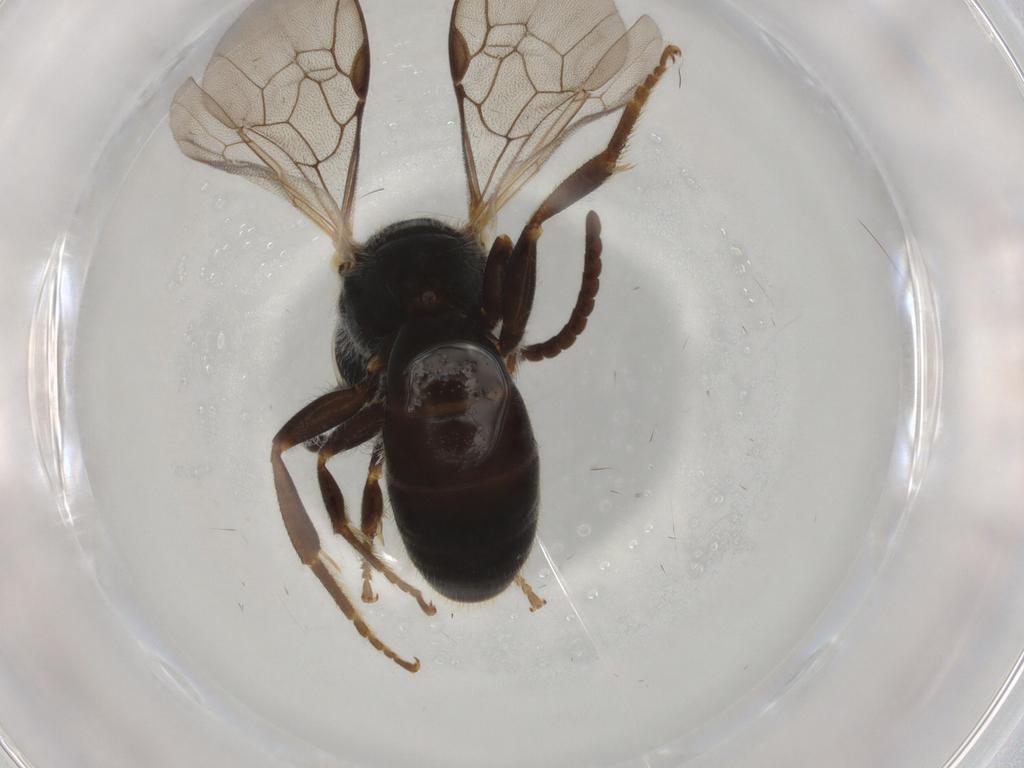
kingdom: Animalia
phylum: Arthropoda
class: Insecta
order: Hymenoptera
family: Halictidae
